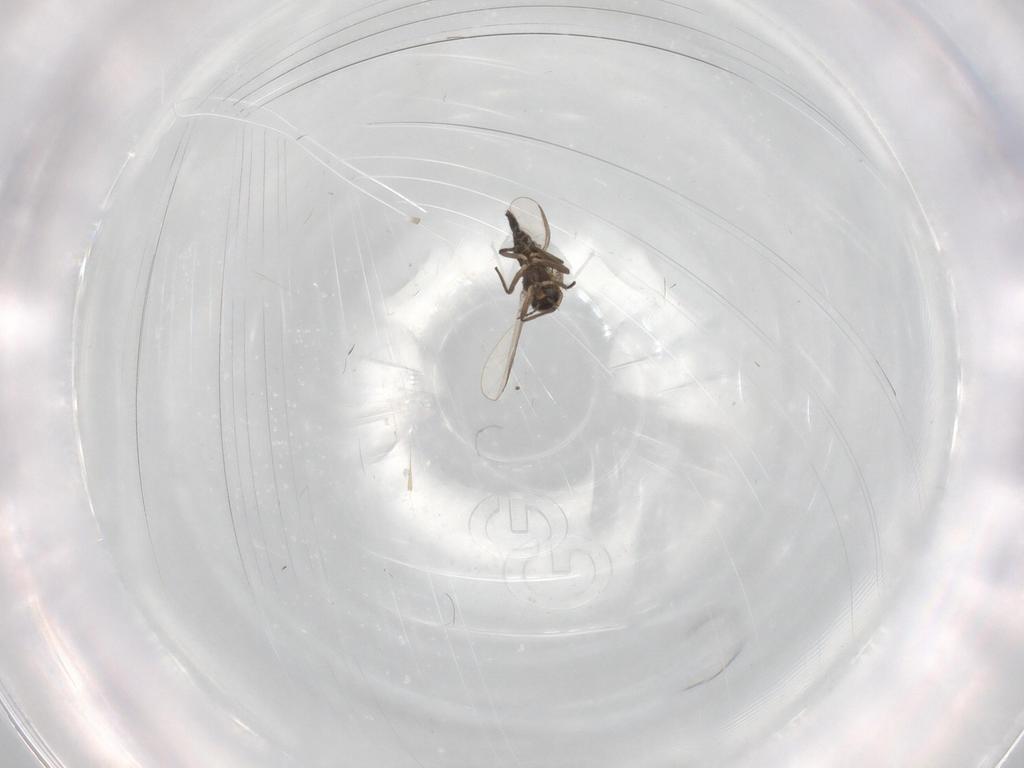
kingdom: Animalia
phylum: Arthropoda
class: Insecta
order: Diptera
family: Chironomidae
